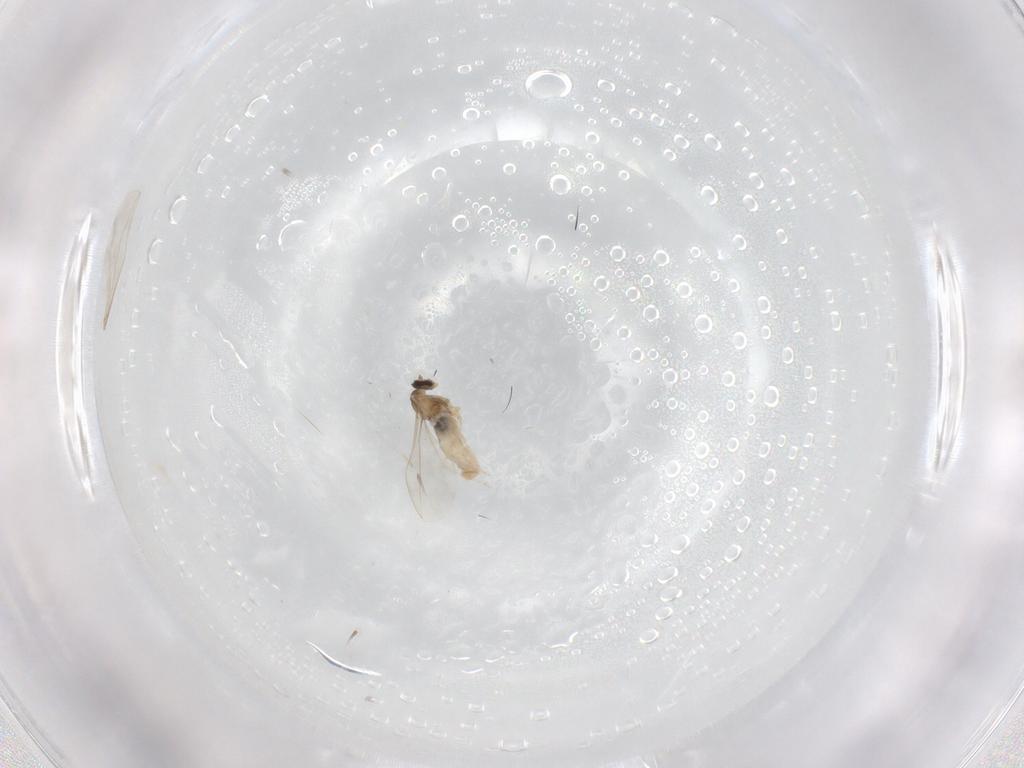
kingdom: Animalia
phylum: Arthropoda
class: Insecta
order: Diptera
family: Cecidomyiidae
